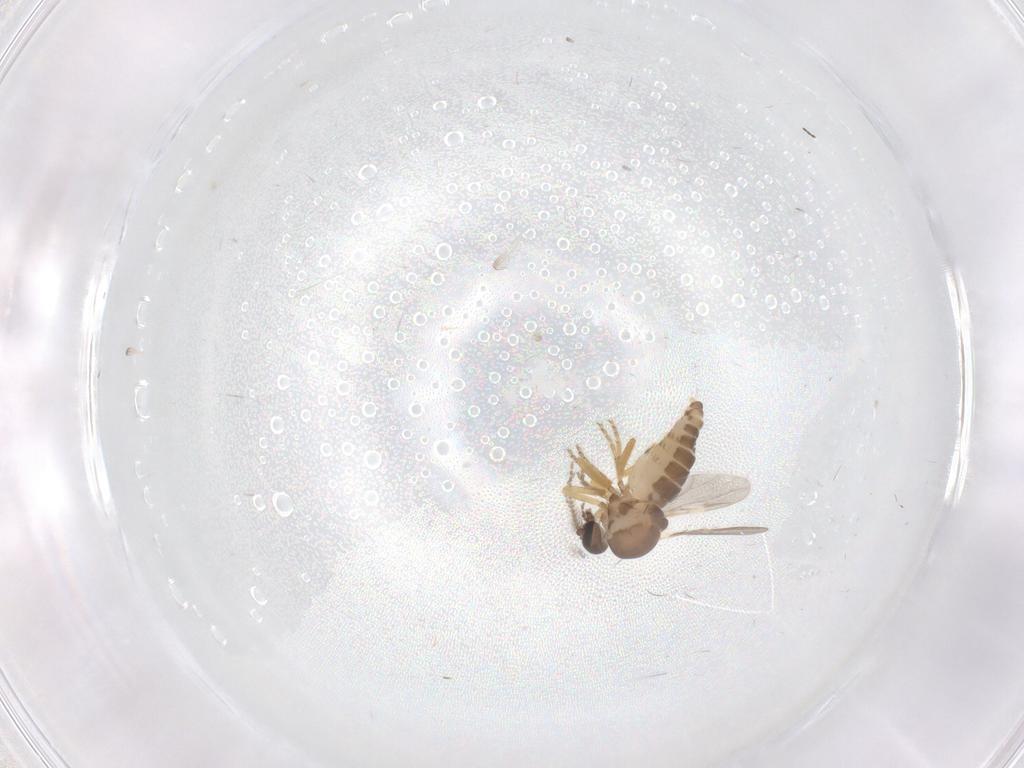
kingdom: Animalia
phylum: Arthropoda
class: Insecta
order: Diptera
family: Ceratopogonidae
